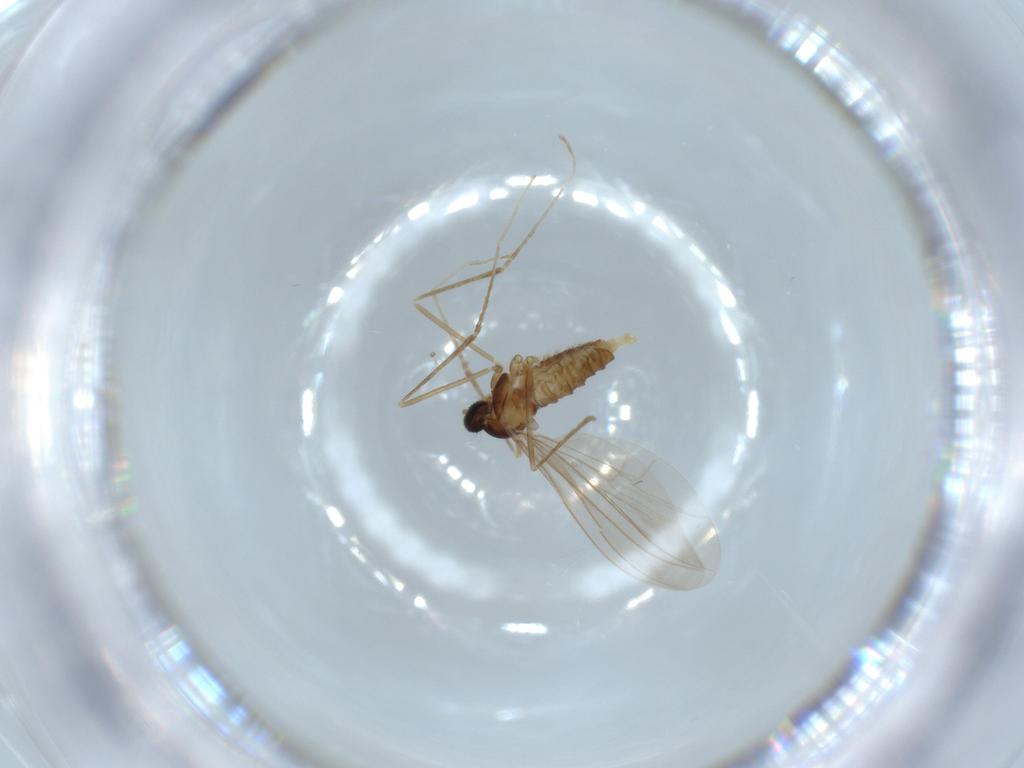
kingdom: Animalia
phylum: Arthropoda
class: Insecta
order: Diptera
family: Cecidomyiidae
